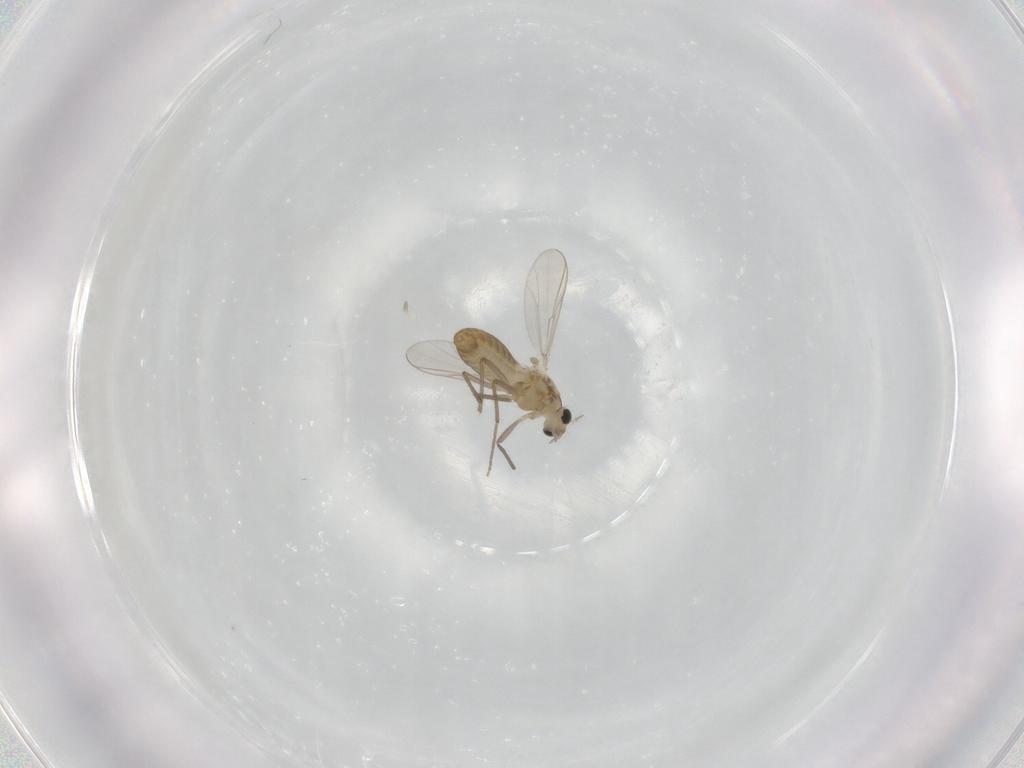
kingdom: Animalia
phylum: Arthropoda
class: Insecta
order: Diptera
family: Chironomidae
